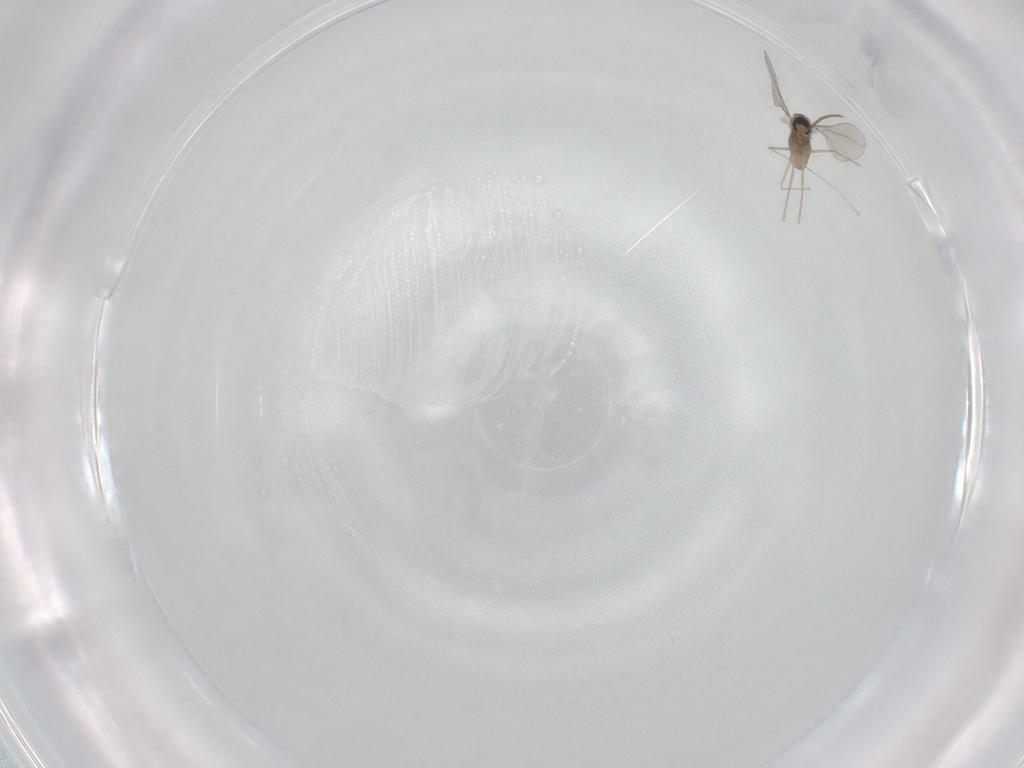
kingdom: Animalia
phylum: Arthropoda
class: Insecta
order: Diptera
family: Cecidomyiidae
